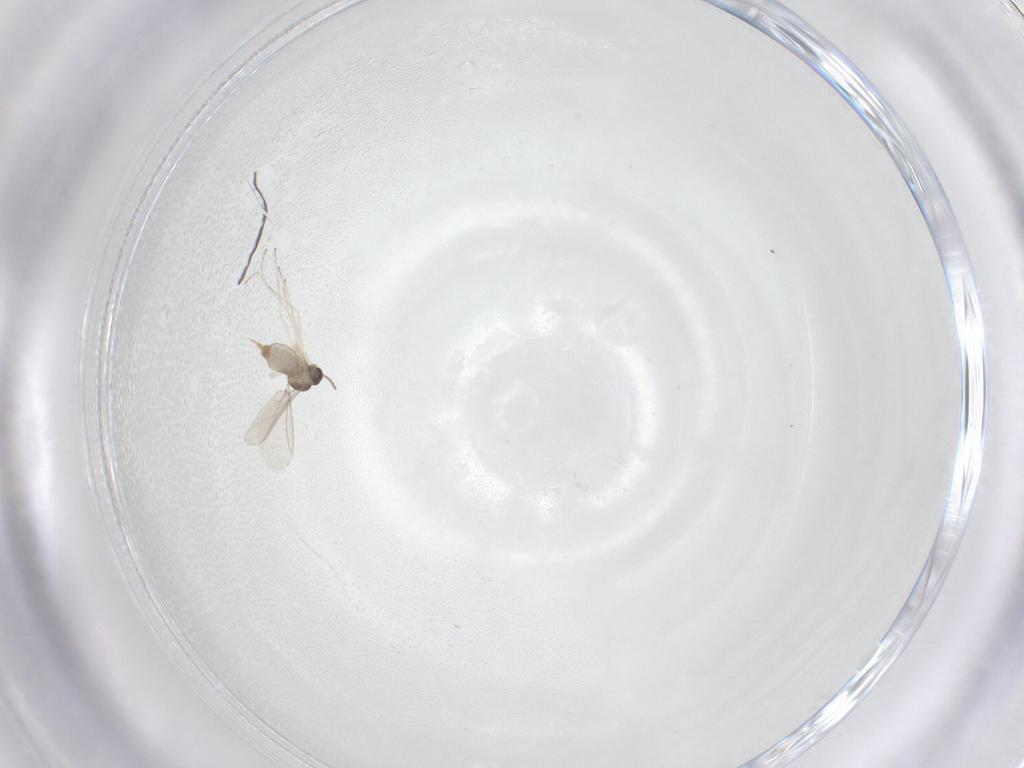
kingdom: Animalia
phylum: Arthropoda
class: Insecta
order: Diptera
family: Cecidomyiidae
